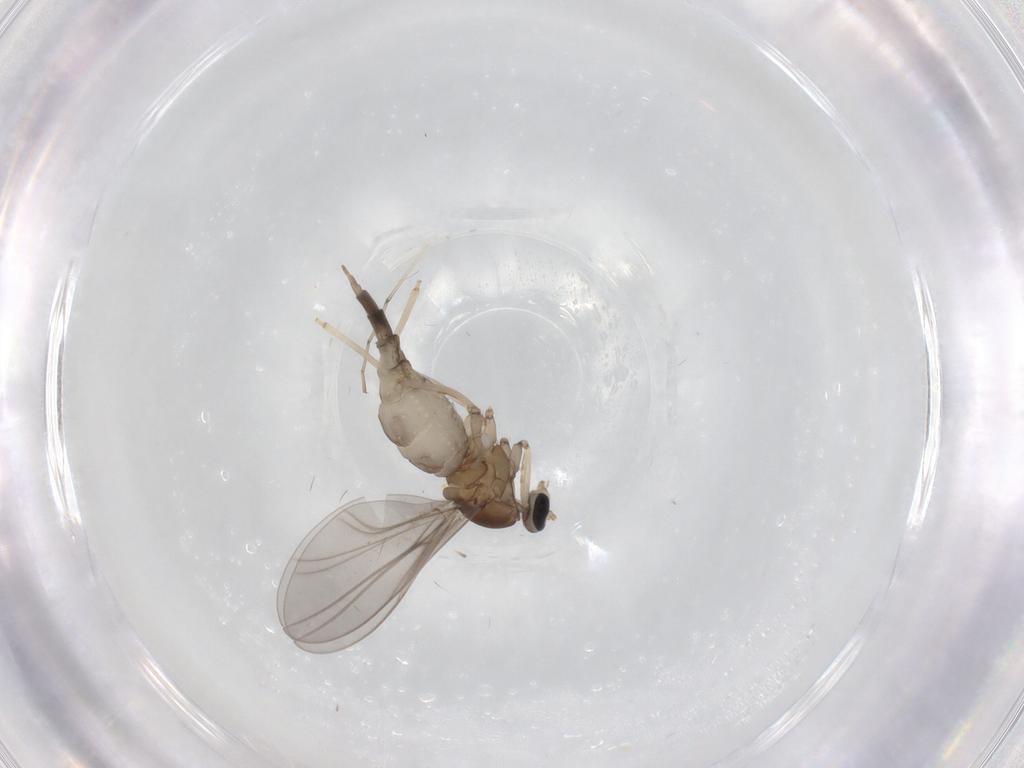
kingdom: Animalia
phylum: Arthropoda
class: Insecta
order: Diptera
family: Cecidomyiidae
